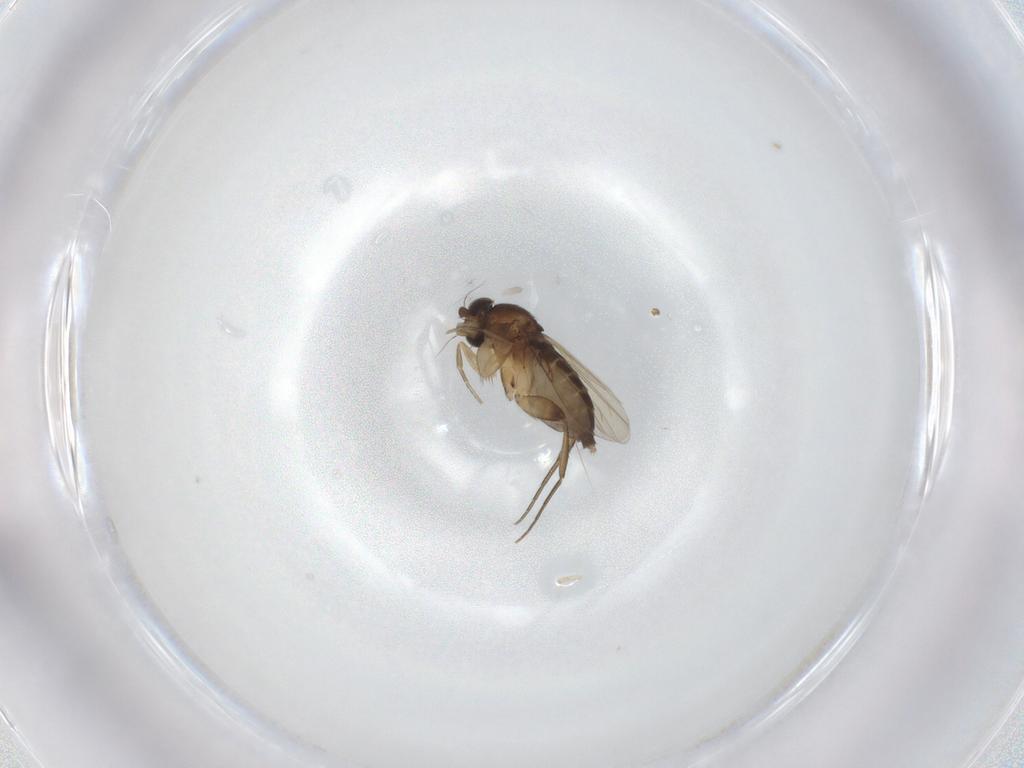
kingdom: Animalia
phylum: Arthropoda
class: Insecta
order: Diptera
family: Phoridae
